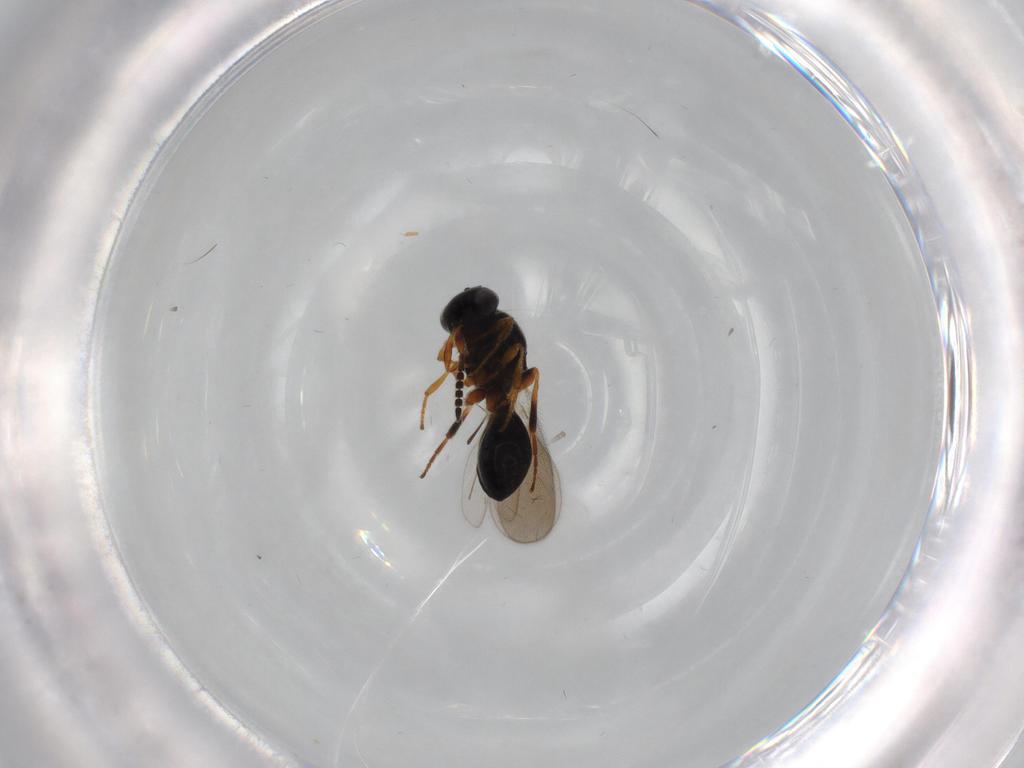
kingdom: Animalia
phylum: Arthropoda
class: Insecta
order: Hymenoptera
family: Platygastridae
